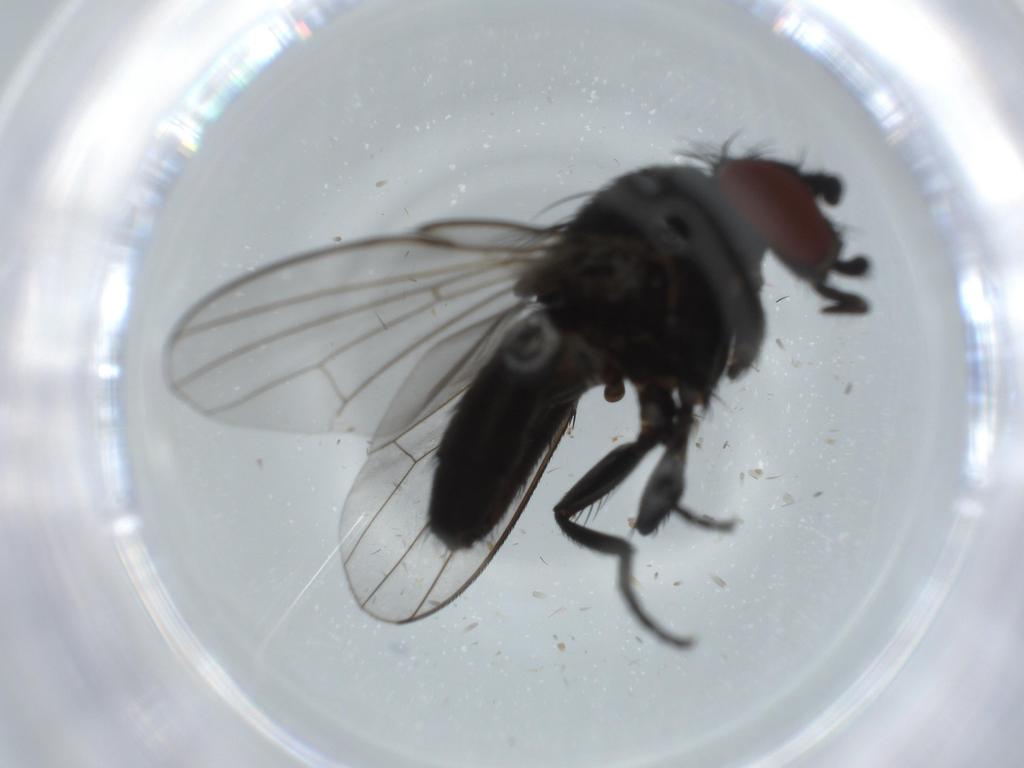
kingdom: Animalia
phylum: Arthropoda
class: Insecta
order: Diptera
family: Milichiidae
